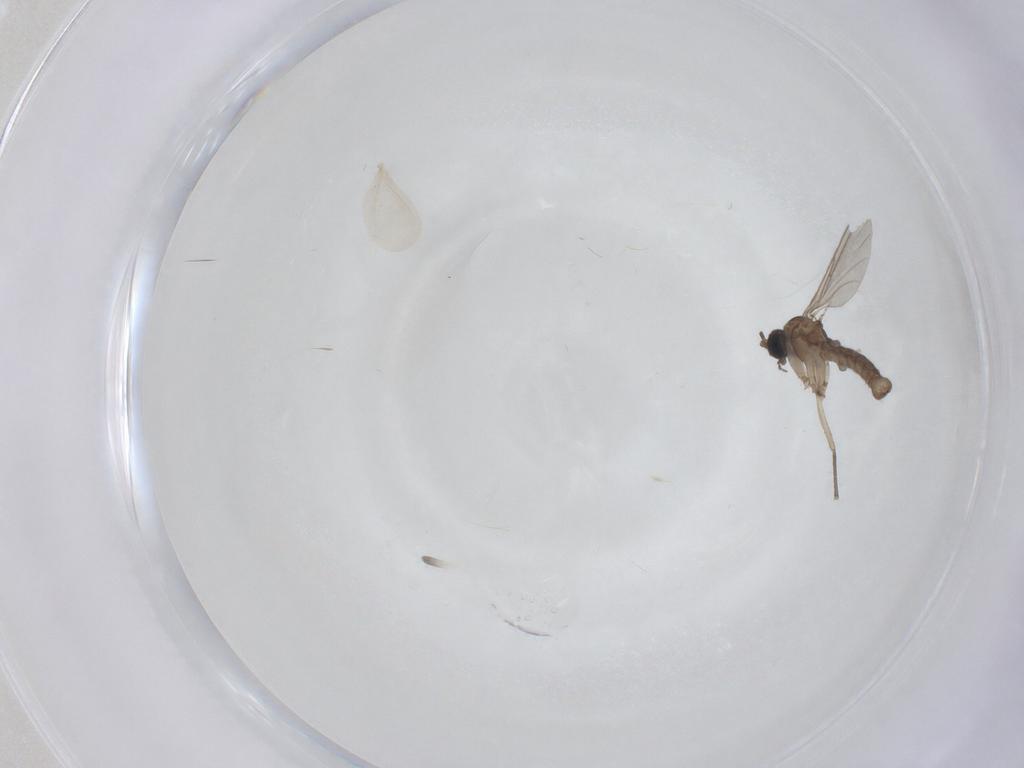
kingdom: Animalia
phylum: Arthropoda
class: Insecta
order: Diptera
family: Sciaridae
